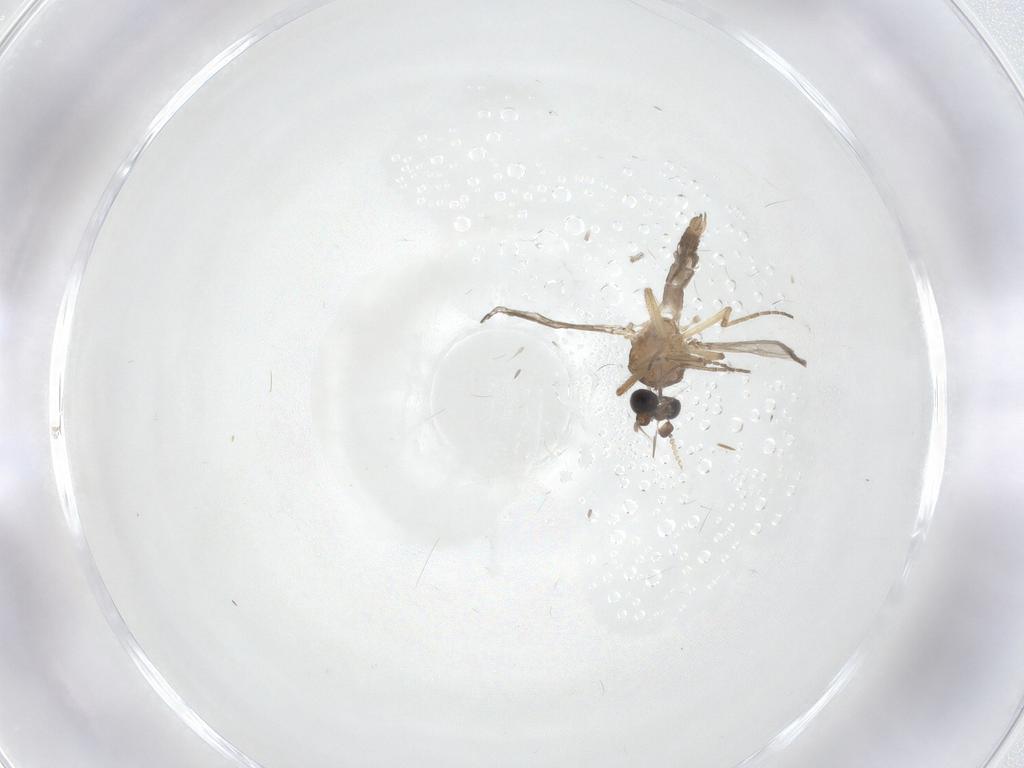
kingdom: Animalia
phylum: Arthropoda
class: Insecta
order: Diptera
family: Ceratopogonidae
